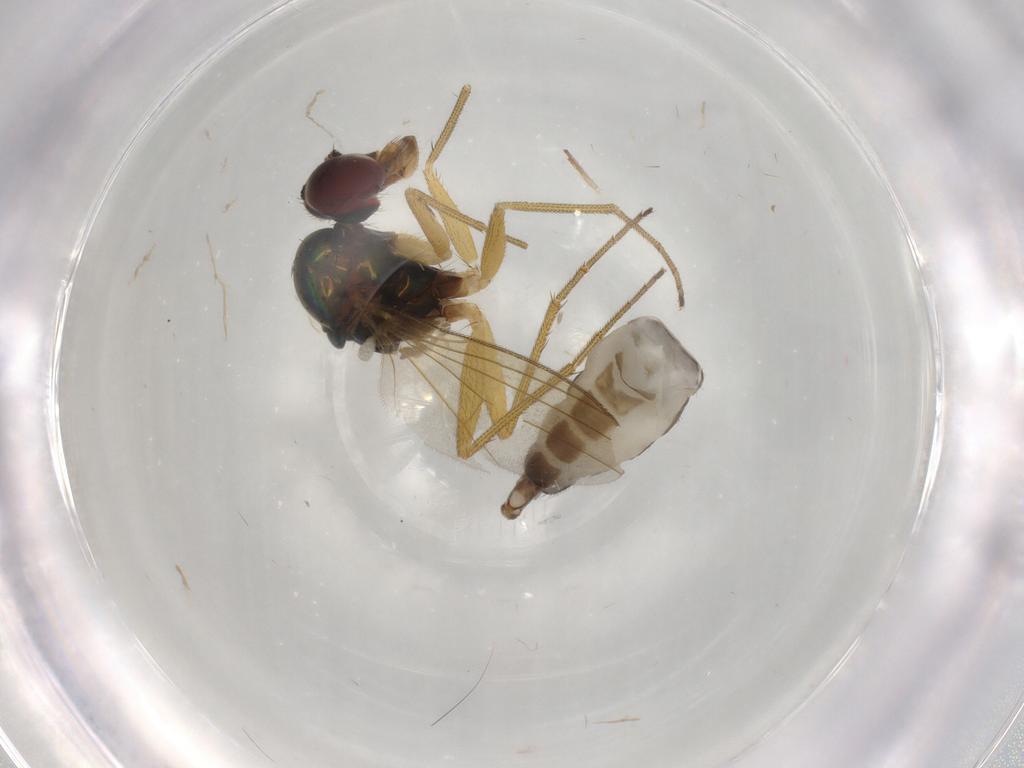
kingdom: Animalia
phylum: Arthropoda
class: Insecta
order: Diptera
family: Dolichopodidae
